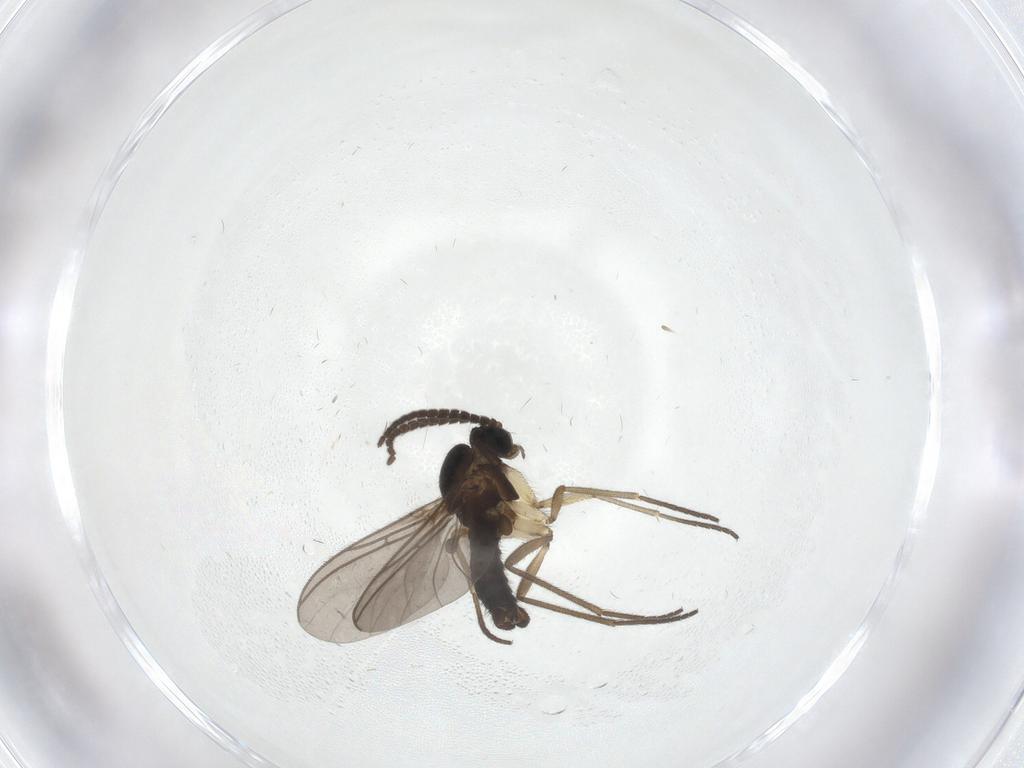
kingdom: Animalia
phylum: Arthropoda
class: Insecta
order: Diptera
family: Sciaridae
